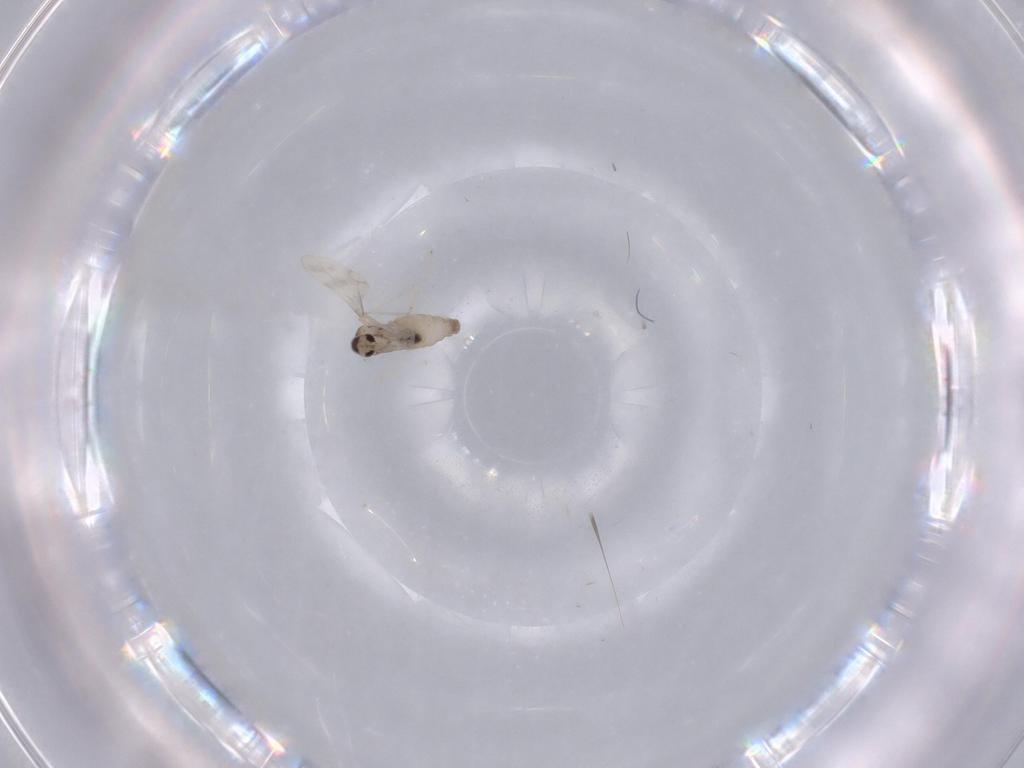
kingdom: Animalia
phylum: Arthropoda
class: Insecta
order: Diptera
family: Cecidomyiidae
